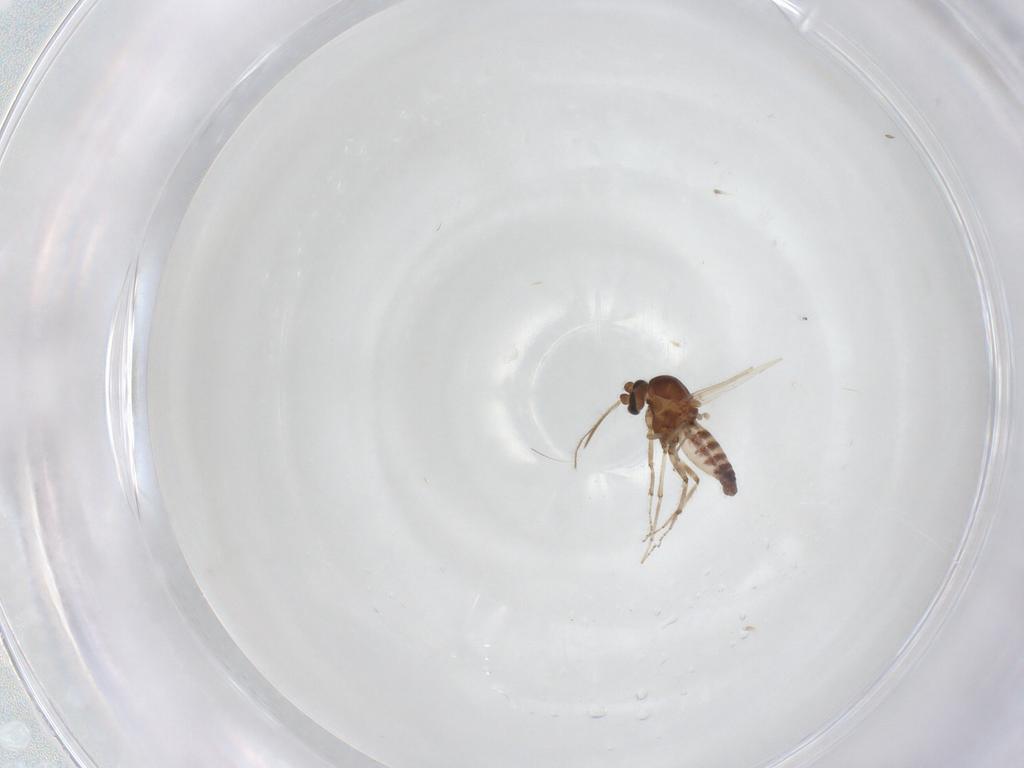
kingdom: Animalia
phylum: Arthropoda
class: Insecta
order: Diptera
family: Ceratopogonidae
